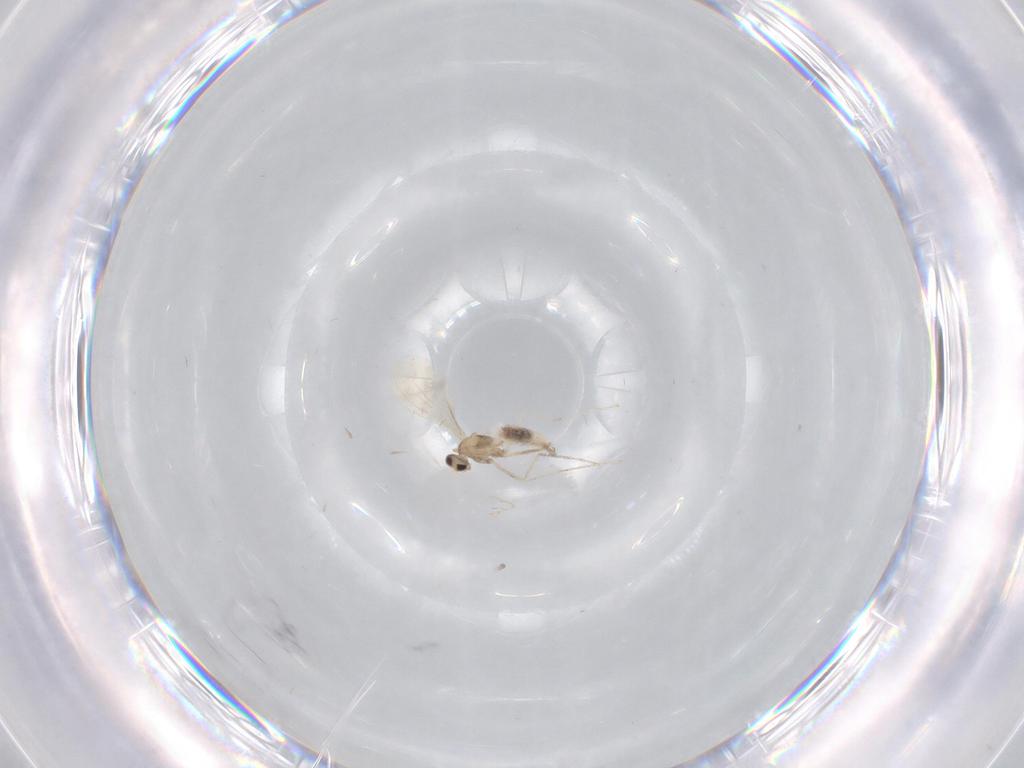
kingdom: Animalia
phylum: Arthropoda
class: Insecta
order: Diptera
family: Cecidomyiidae
